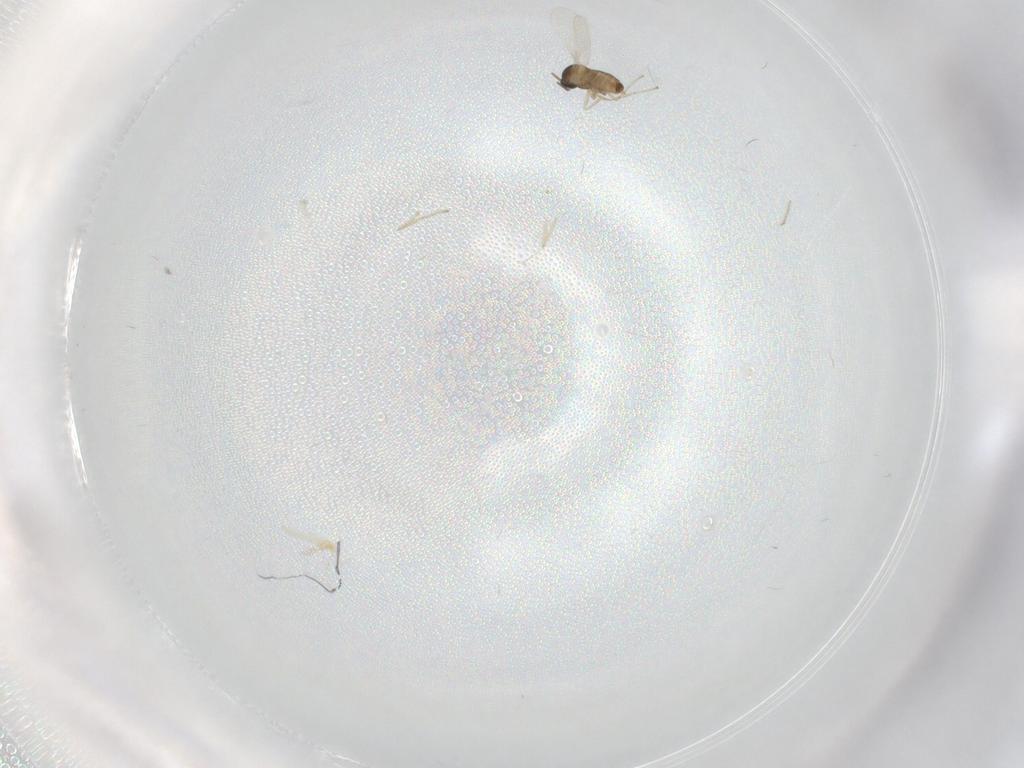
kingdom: Animalia
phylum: Arthropoda
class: Insecta
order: Diptera
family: Cecidomyiidae
